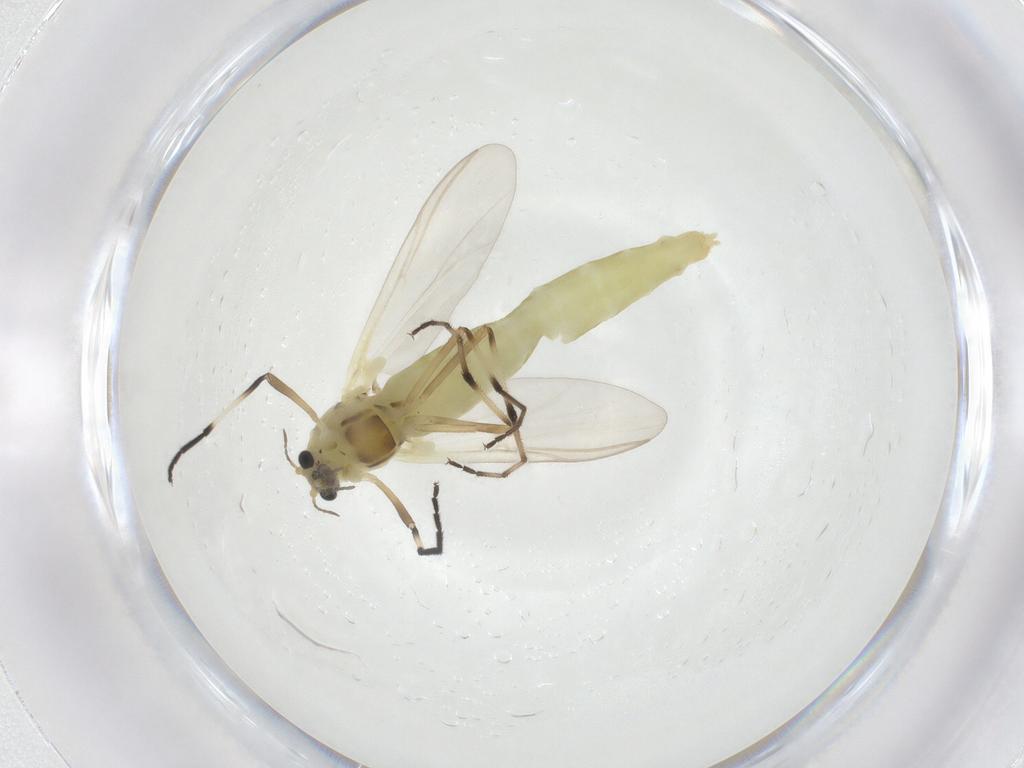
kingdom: Animalia
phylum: Arthropoda
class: Insecta
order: Diptera
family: Chironomidae
